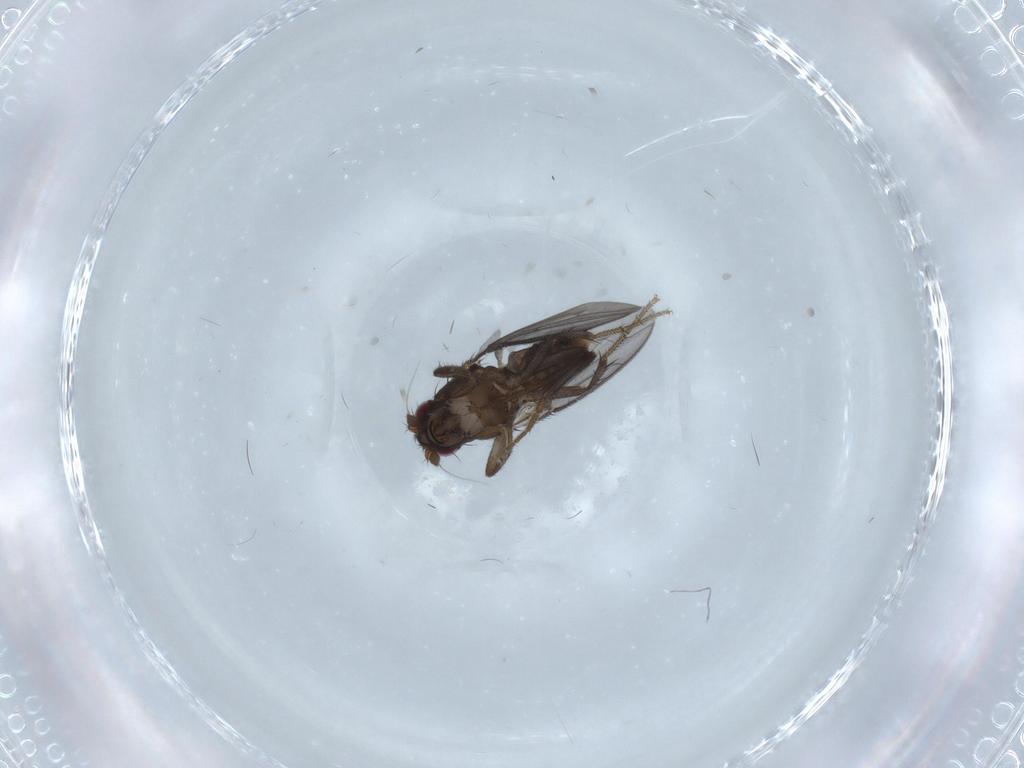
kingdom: Animalia
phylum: Arthropoda
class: Insecta
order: Diptera
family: Sphaeroceridae
